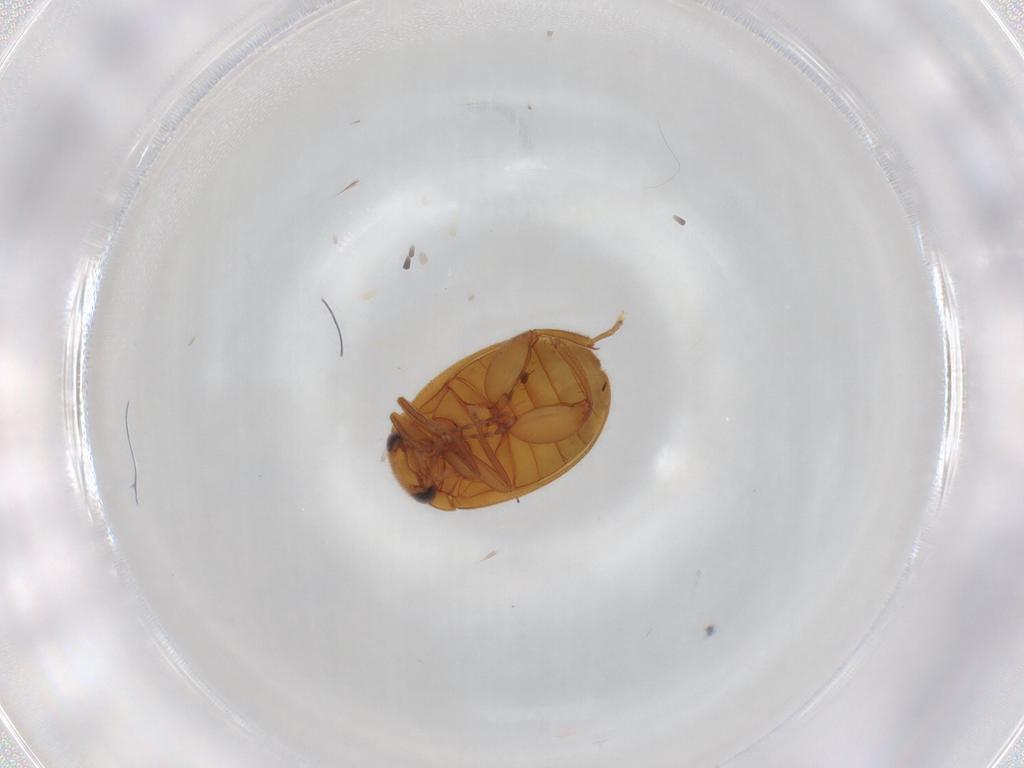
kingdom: Animalia
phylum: Arthropoda
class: Insecta
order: Coleoptera
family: Scirtidae
